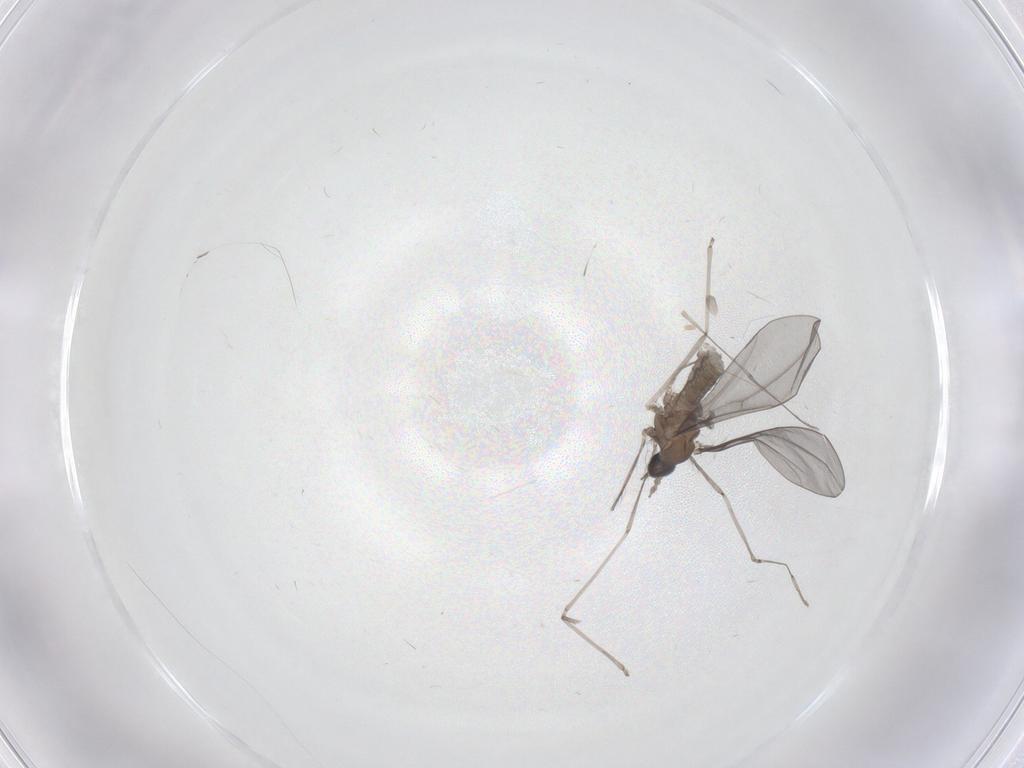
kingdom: Animalia
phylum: Arthropoda
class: Insecta
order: Diptera
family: Cecidomyiidae
